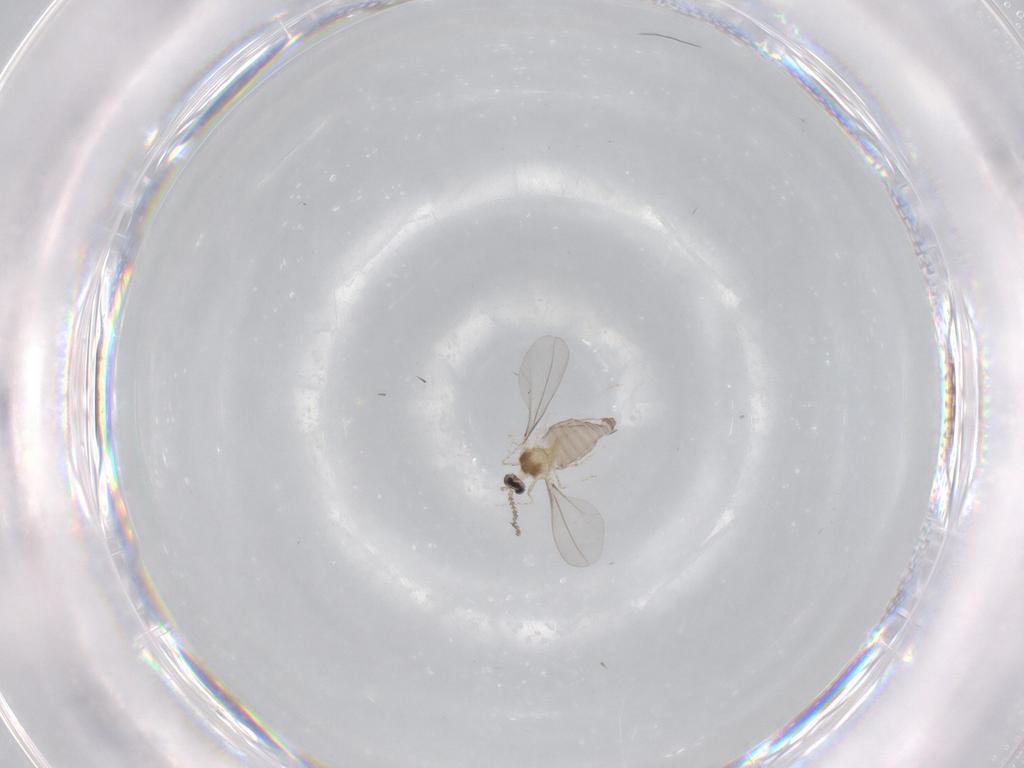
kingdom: Animalia
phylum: Arthropoda
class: Insecta
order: Diptera
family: Cecidomyiidae
